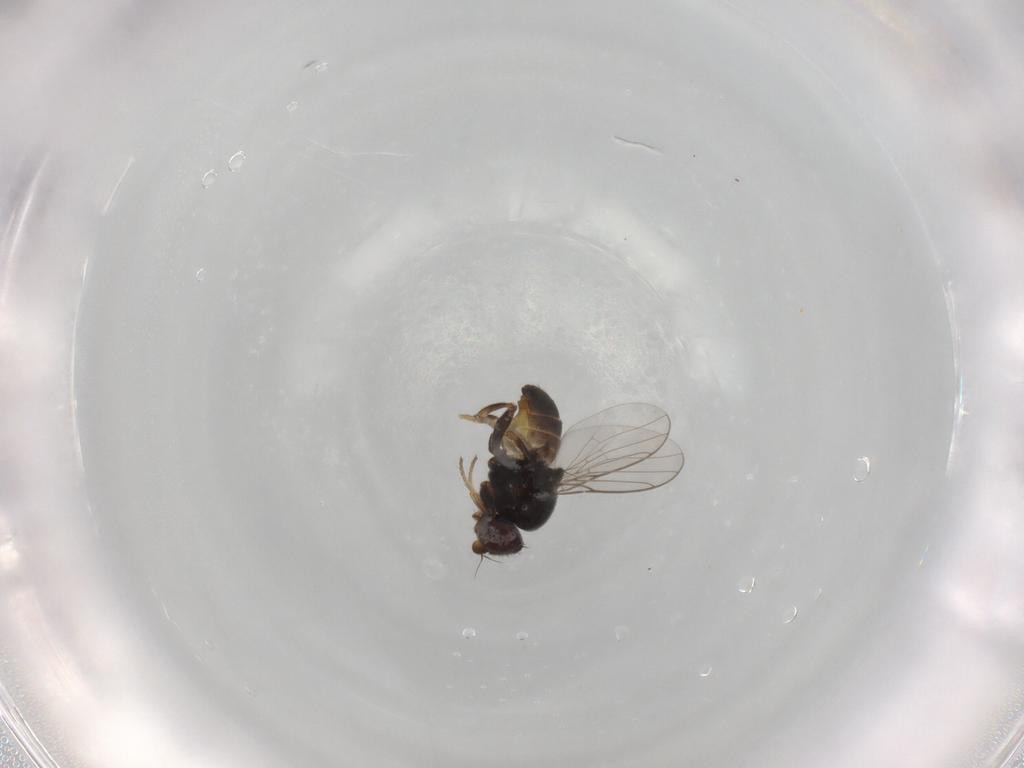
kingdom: Animalia
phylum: Arthropoda
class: Insecta
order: Diptera
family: Chloropidae
